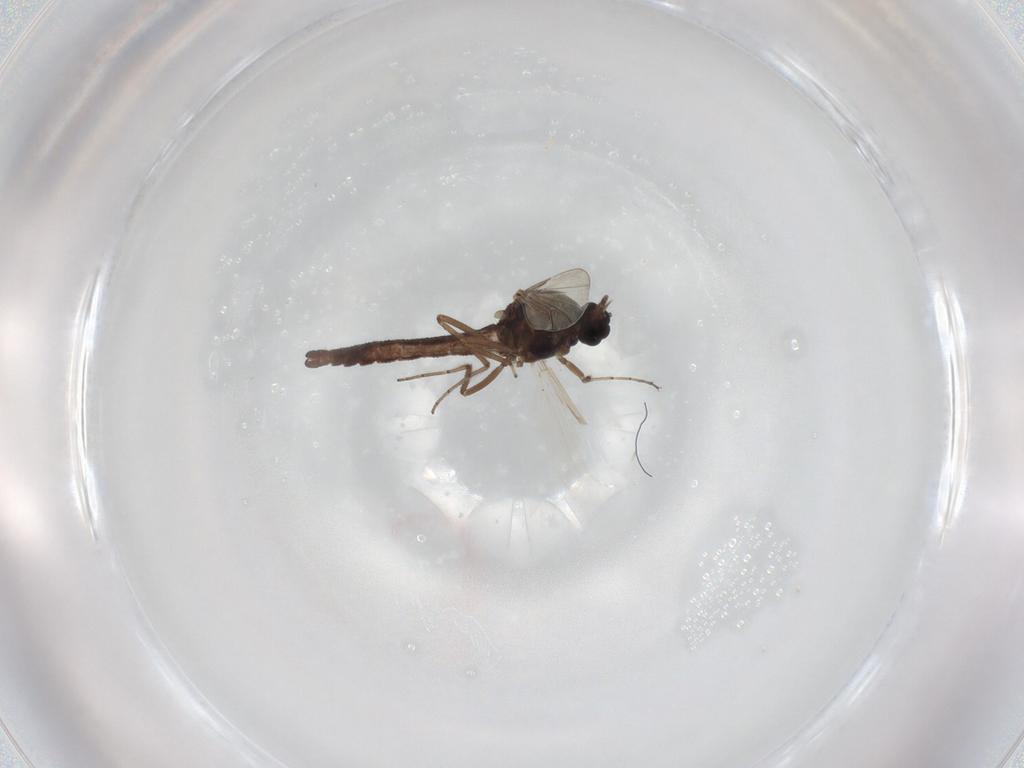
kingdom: Animalia
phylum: Arthropoda
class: Insecta
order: Diptera
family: Ceratopogonidae
